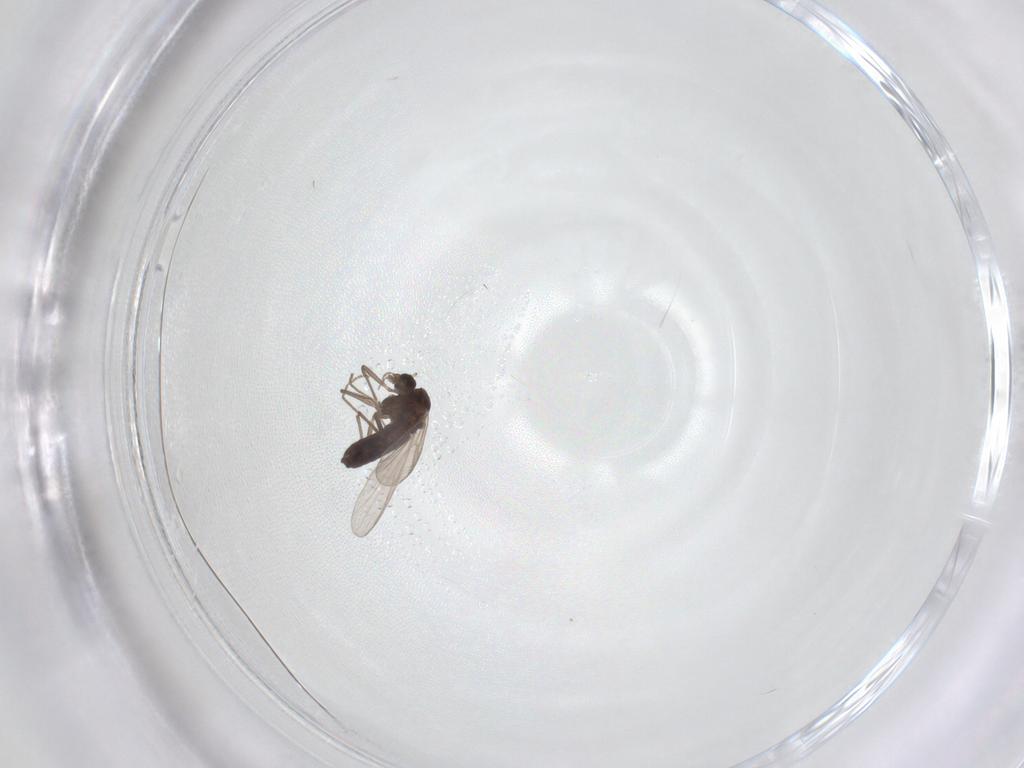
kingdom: Animalia
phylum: Arthropoda
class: Insecta
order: Diptera
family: Chironomidae
